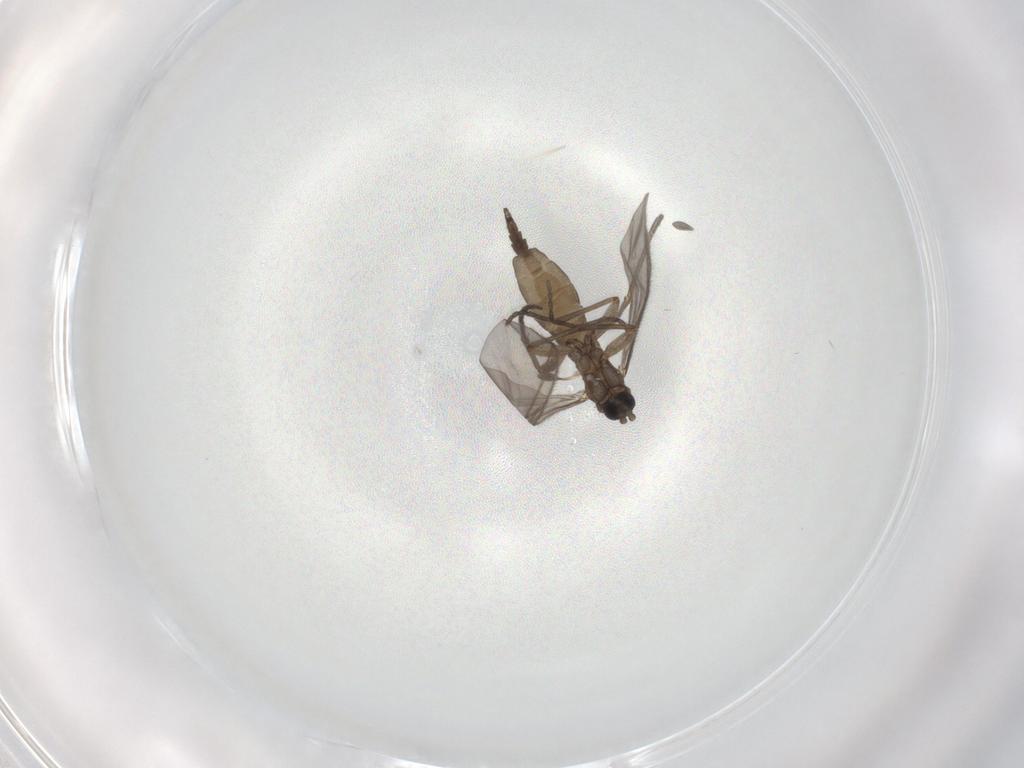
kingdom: Animalia
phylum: Arthropoda
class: Insecta
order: Diptera
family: Sciaridae
